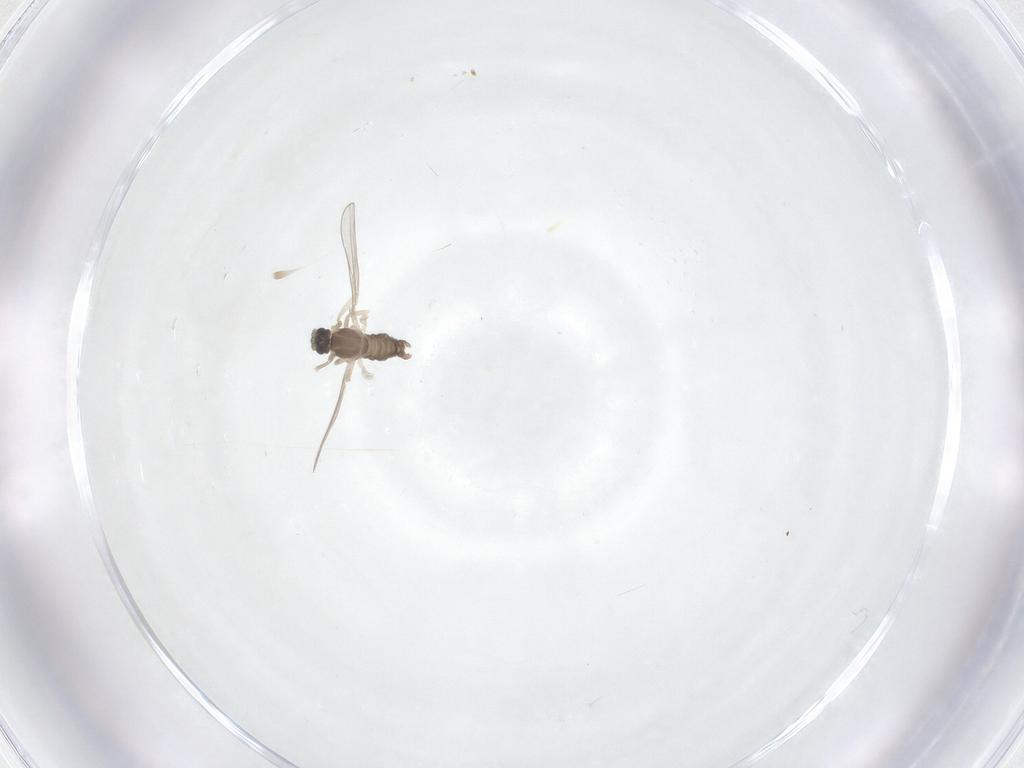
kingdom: Animalia
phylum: Arthropoda
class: Insecta
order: Diptera
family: Cecidomyiidae
